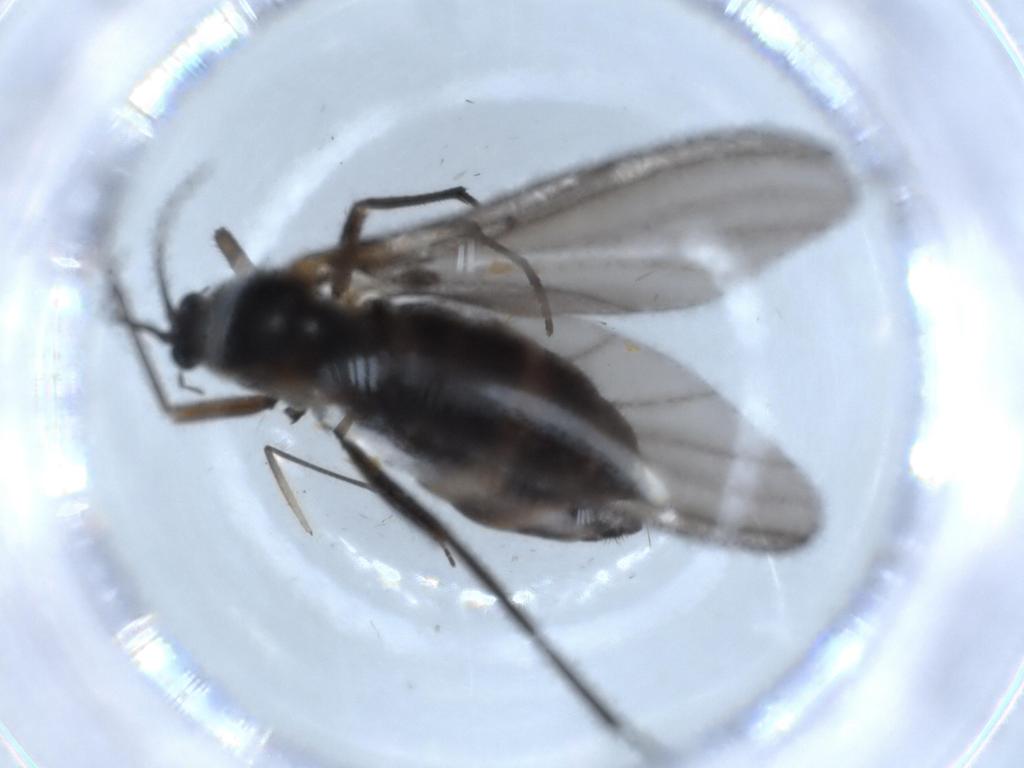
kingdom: Animalia
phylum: Arthropoda
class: Insecta
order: Diptera
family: Sciaridae
